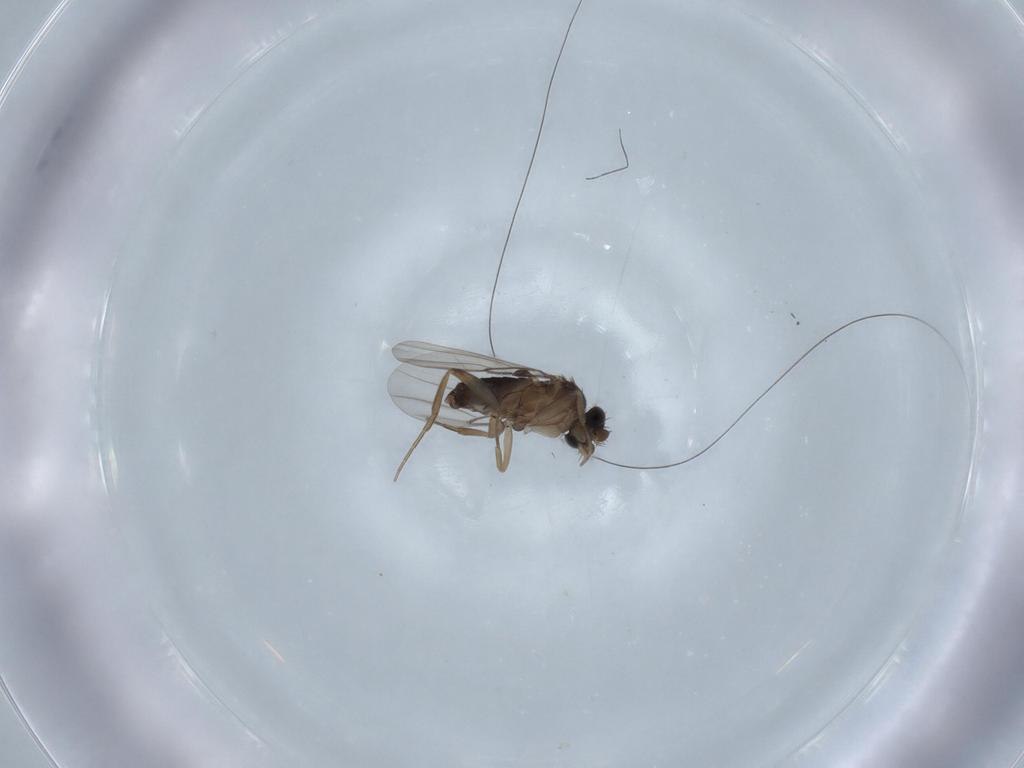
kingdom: Animalia
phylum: Arthropoda
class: Insecta
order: Diptera
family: Phoridae
